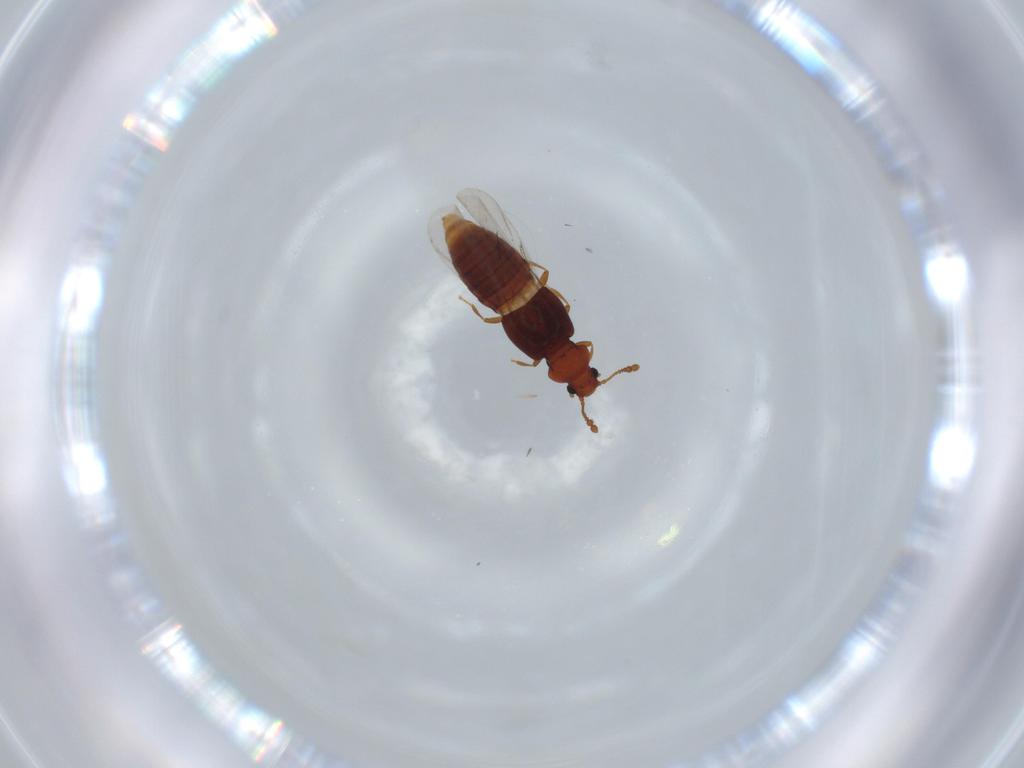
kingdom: Animalia
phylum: Arthropoda
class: Insecta
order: Coleoptera
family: Staphylinidae
